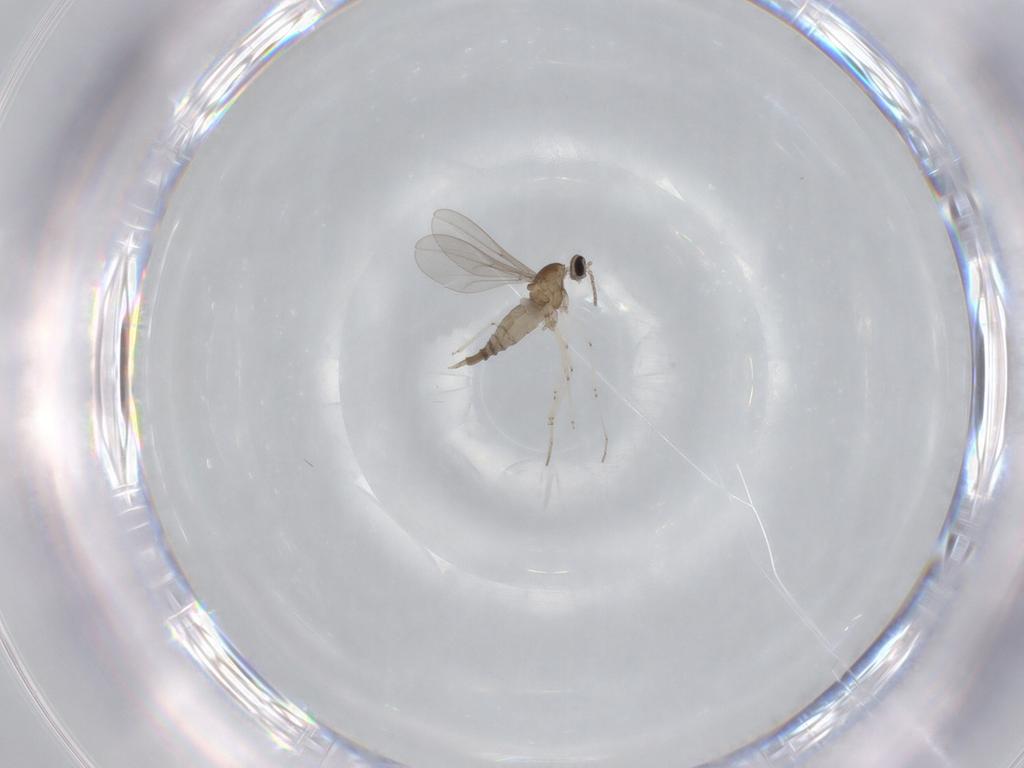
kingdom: Animalia
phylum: Arthropoda
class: Insecta
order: Diptera
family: Cecidomyiidae
